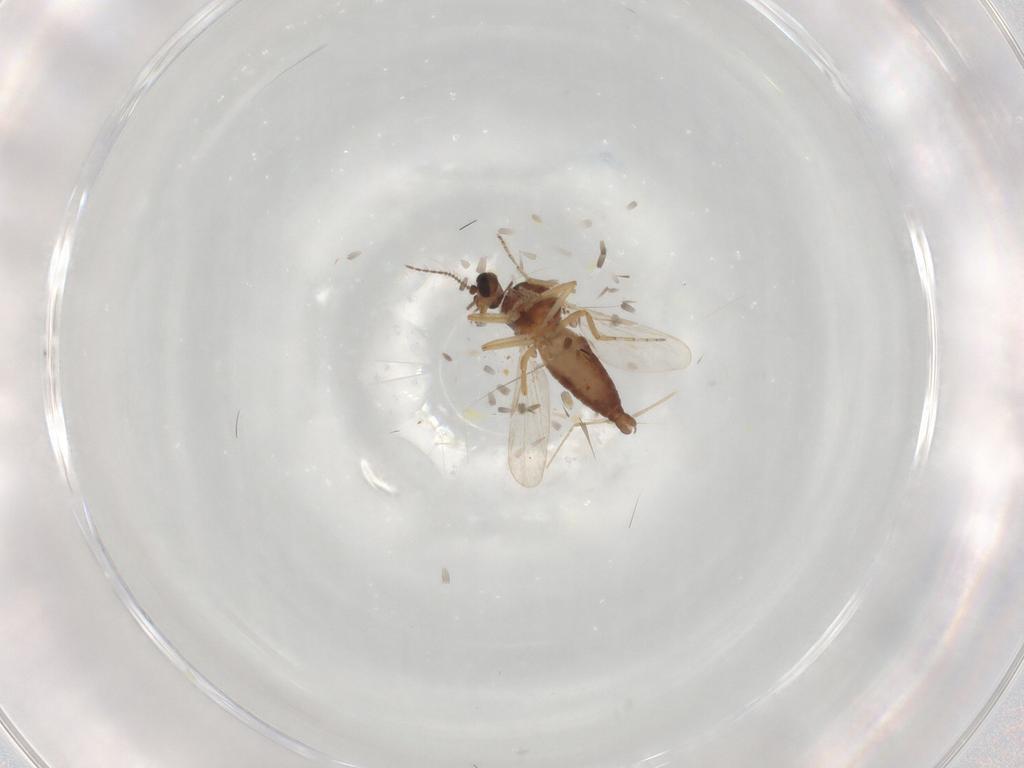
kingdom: Animalia
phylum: Arthropoda
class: Insecta
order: Diptera
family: Ceratopogonidae
